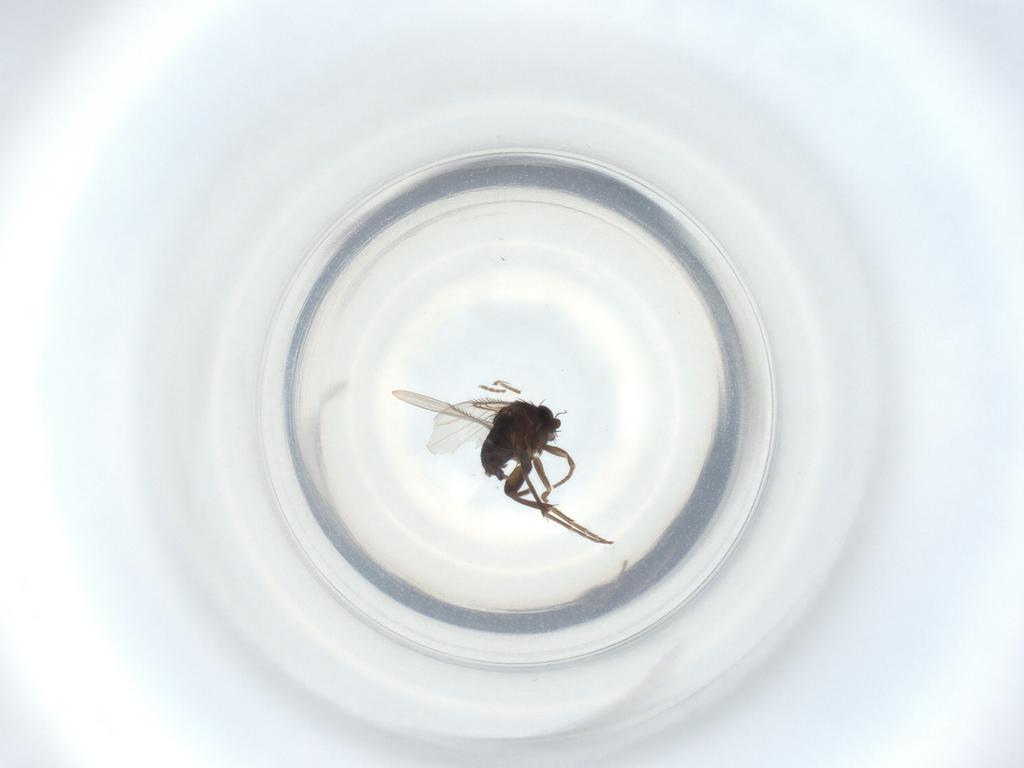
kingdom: Animalia
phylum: Arthropoda
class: Insecta
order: Diptera
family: Phoridae
